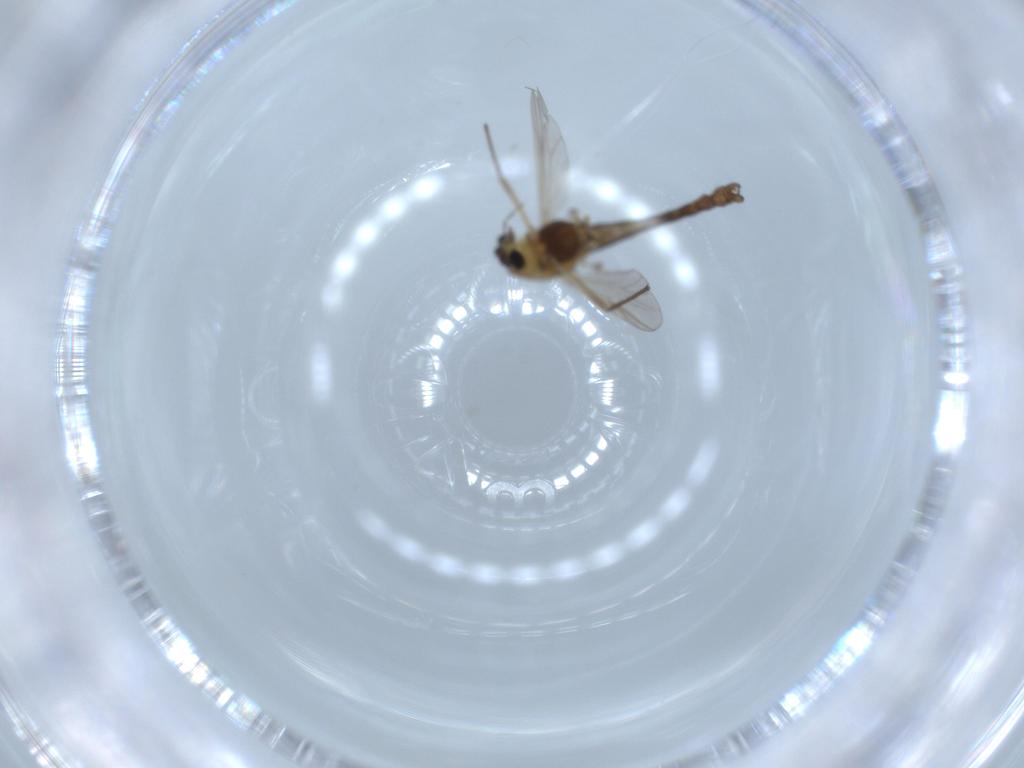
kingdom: Animalia
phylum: Arthropoda
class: Insecta
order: Diptera
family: Chironomidae
